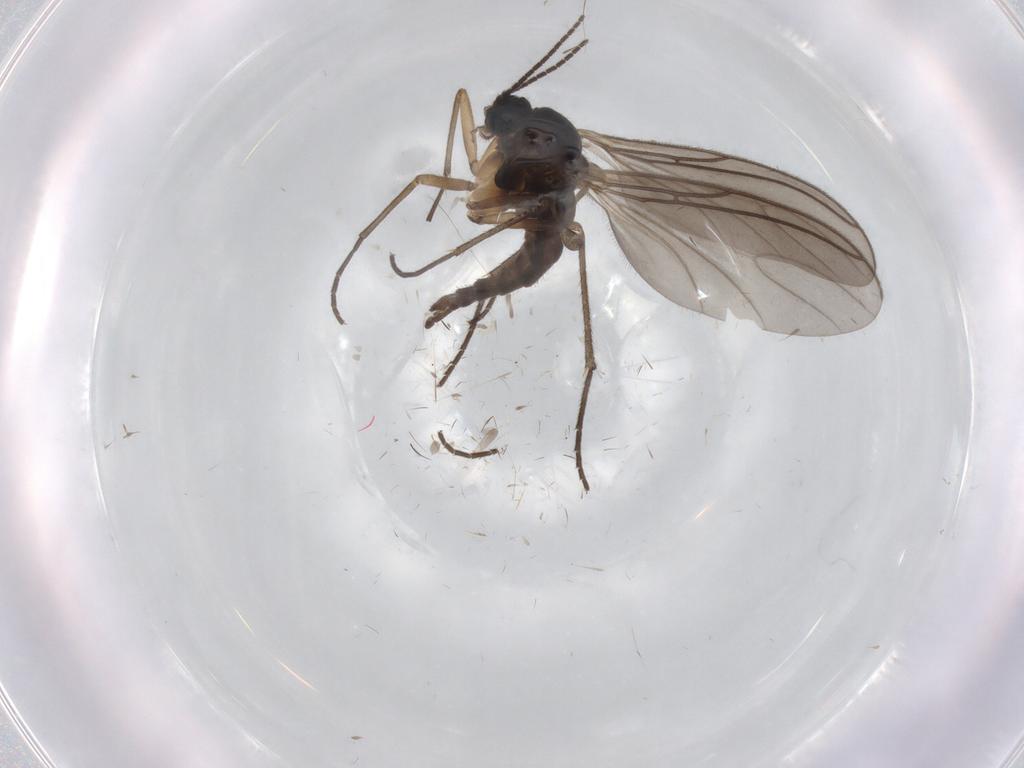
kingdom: Animalia
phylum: Arthropoda
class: Insecta
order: Diptera
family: Sciaridae
